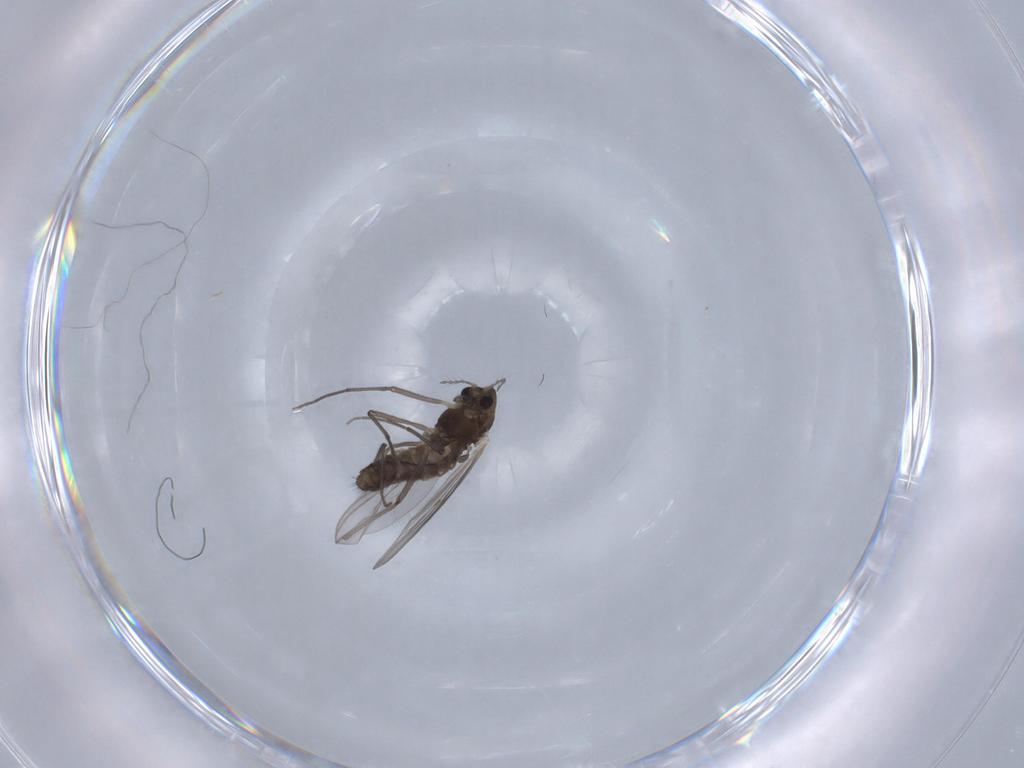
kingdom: Animalia
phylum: Arthropoda
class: Insecta
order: Diptera
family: Chironomidae
